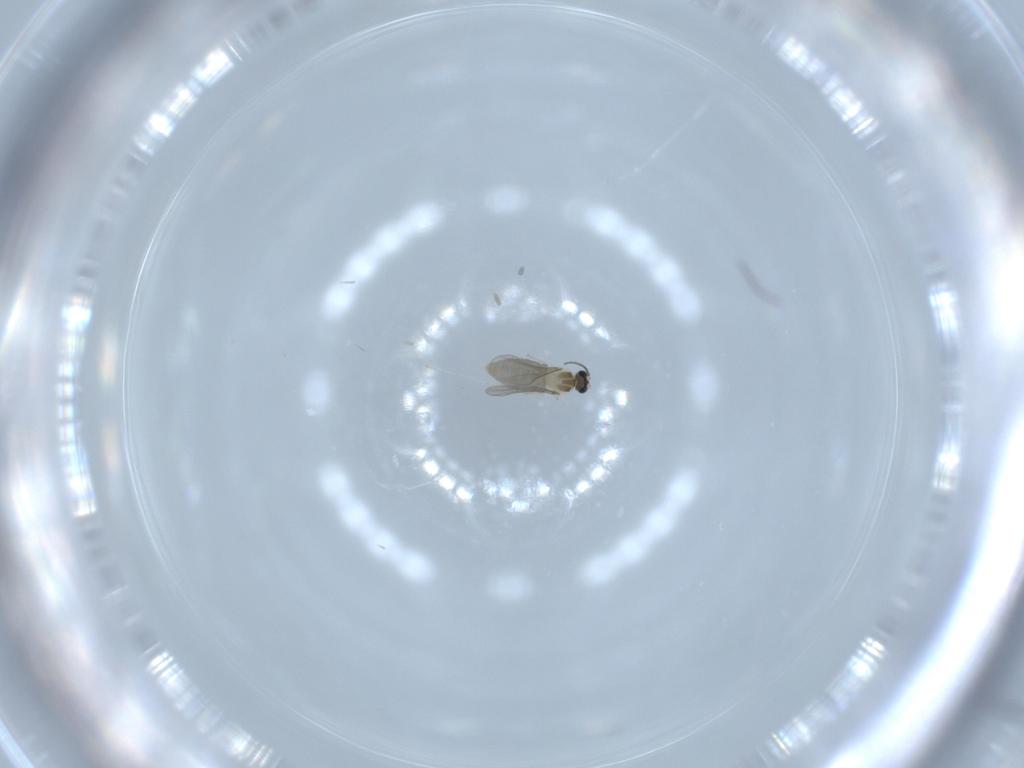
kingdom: Animalia
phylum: Arthropoda
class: Insecta
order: Diptera
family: Cecidomyiidae
